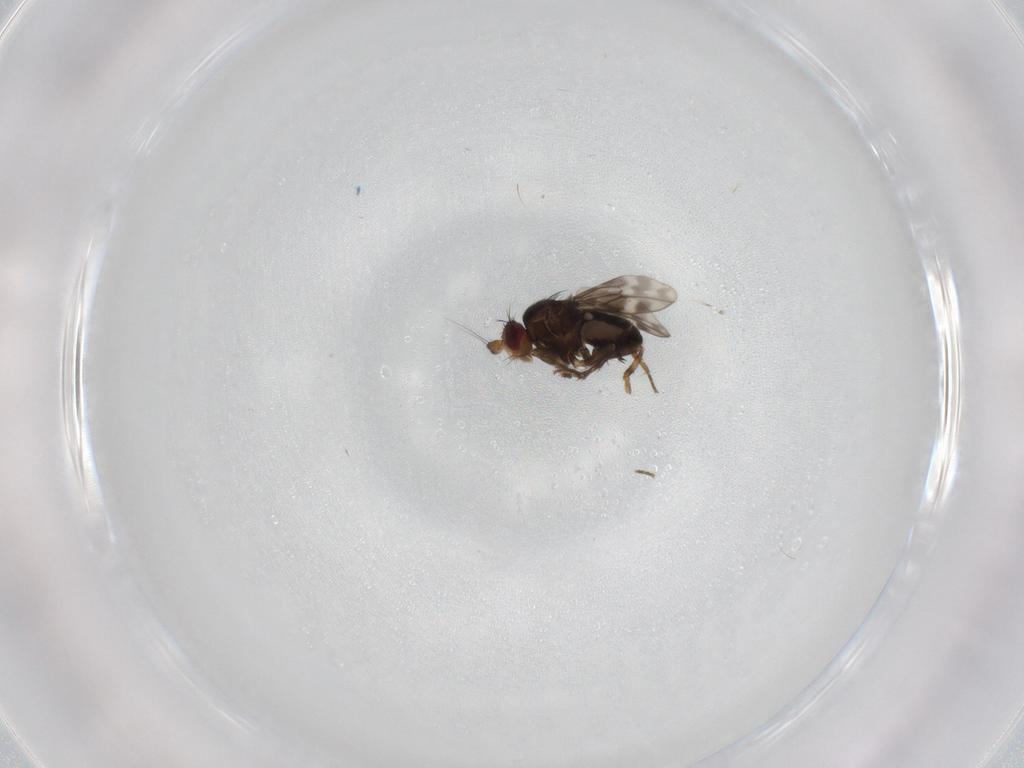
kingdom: Animalia
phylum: Arthropoda
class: Insecta
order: Diptera
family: Sphaeroceridae
